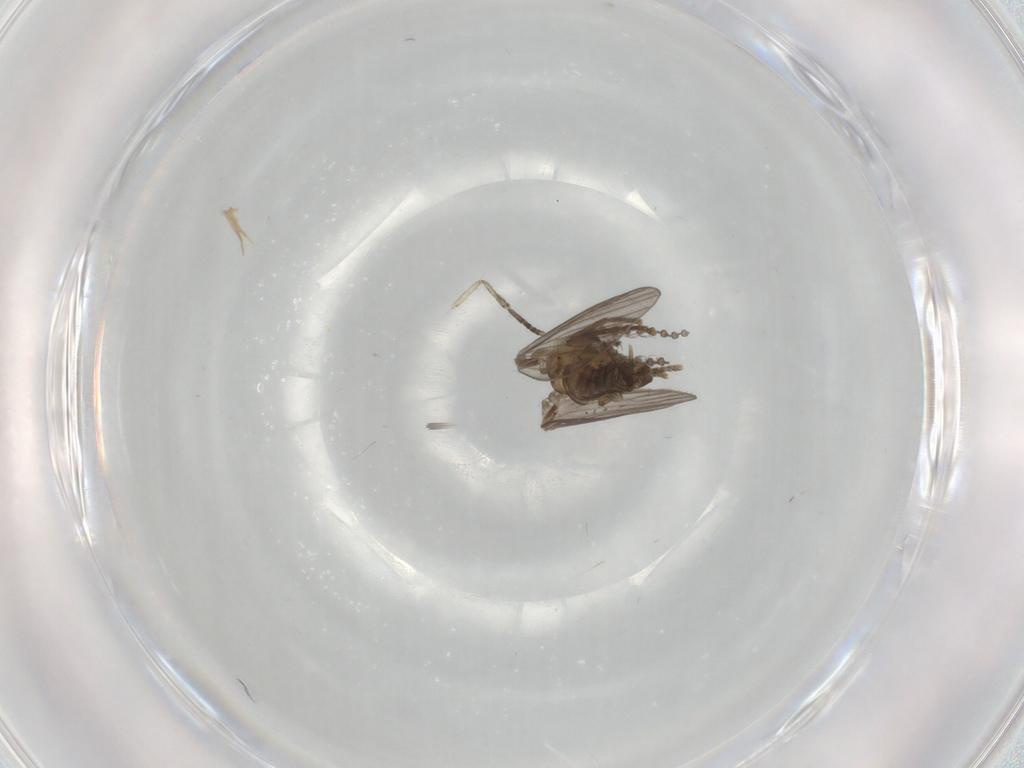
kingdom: Animalia
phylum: Arthropoda
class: Insecta
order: Diptera
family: Psychodidae
